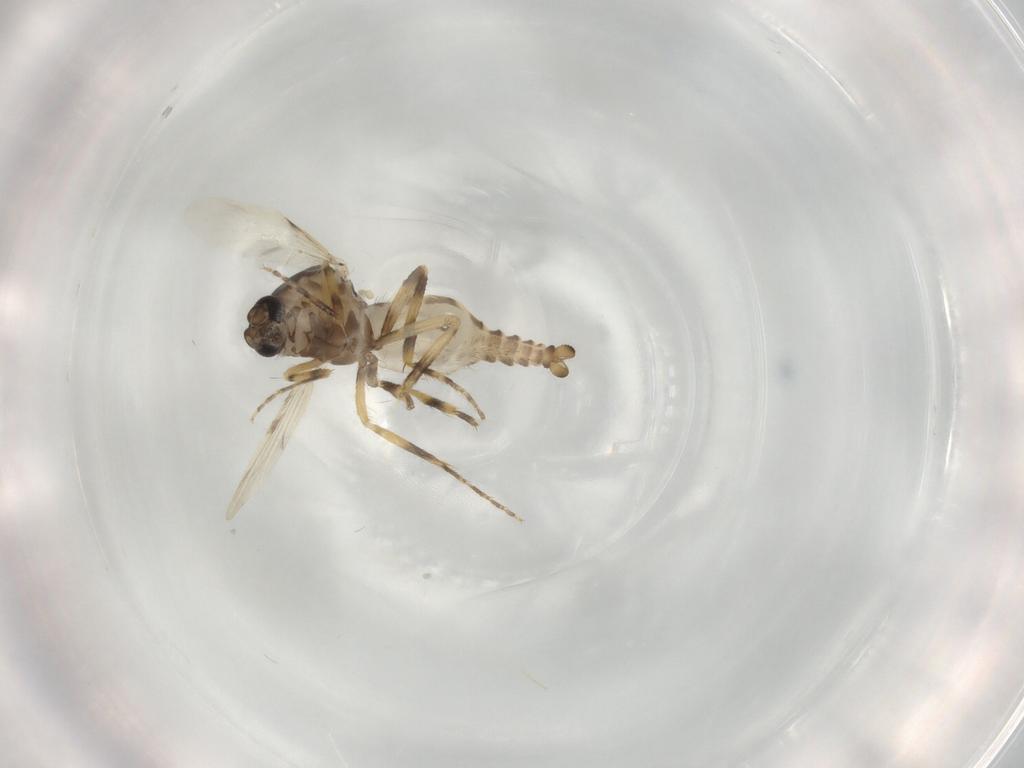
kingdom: Animalia
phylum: Arthropoda
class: Insecta
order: Diptera
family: Ceratopogonidae
